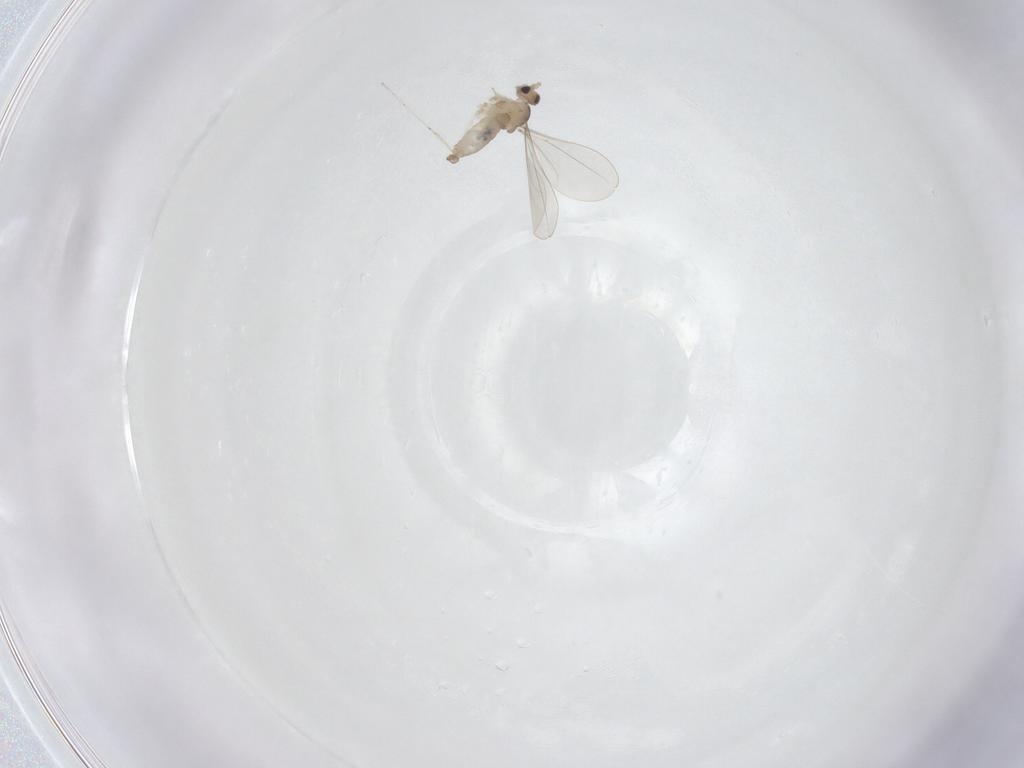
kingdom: Animalia
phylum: Arthropoda
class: Insecta
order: Diptera
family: Cecidomyiidae
